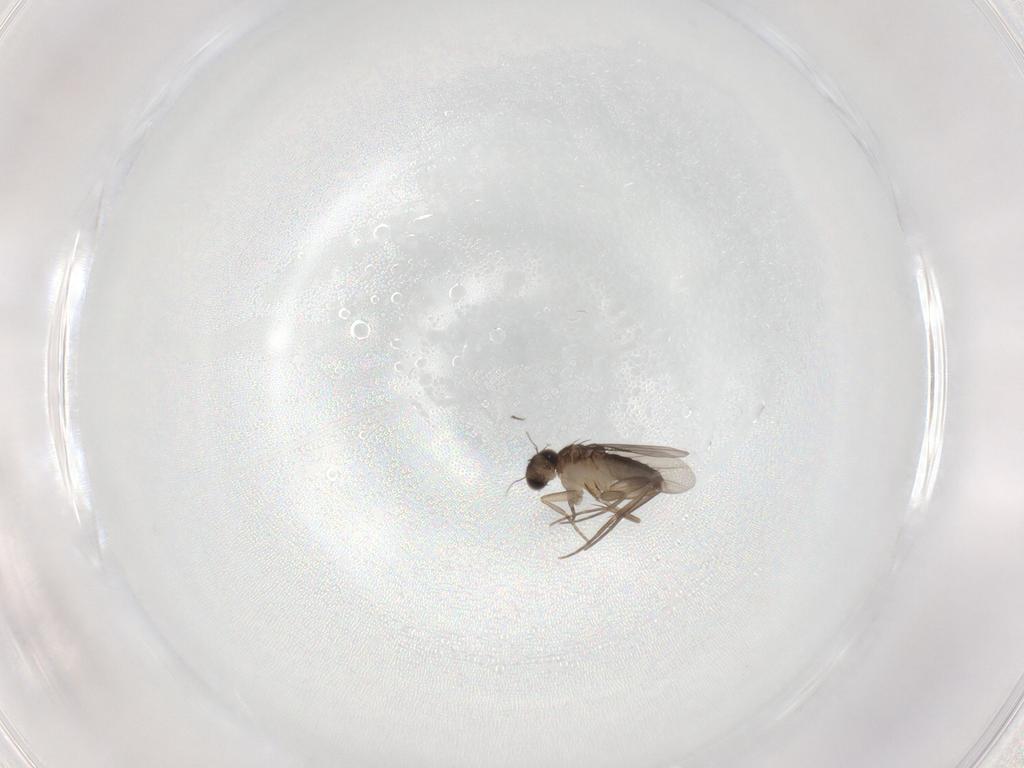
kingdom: Animalia
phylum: Arthropoda
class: Insecta
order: Diptera
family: Phoridae
